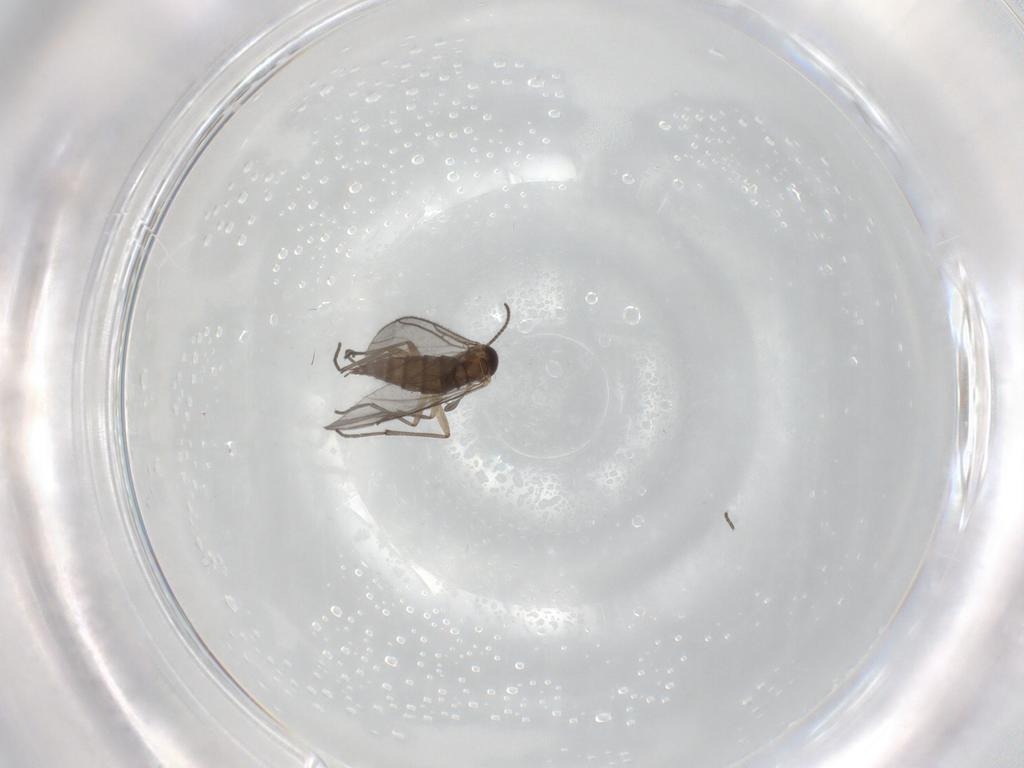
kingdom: Animalia
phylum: Arthropoda
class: Insecta
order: Diptera
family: Sciaridae
